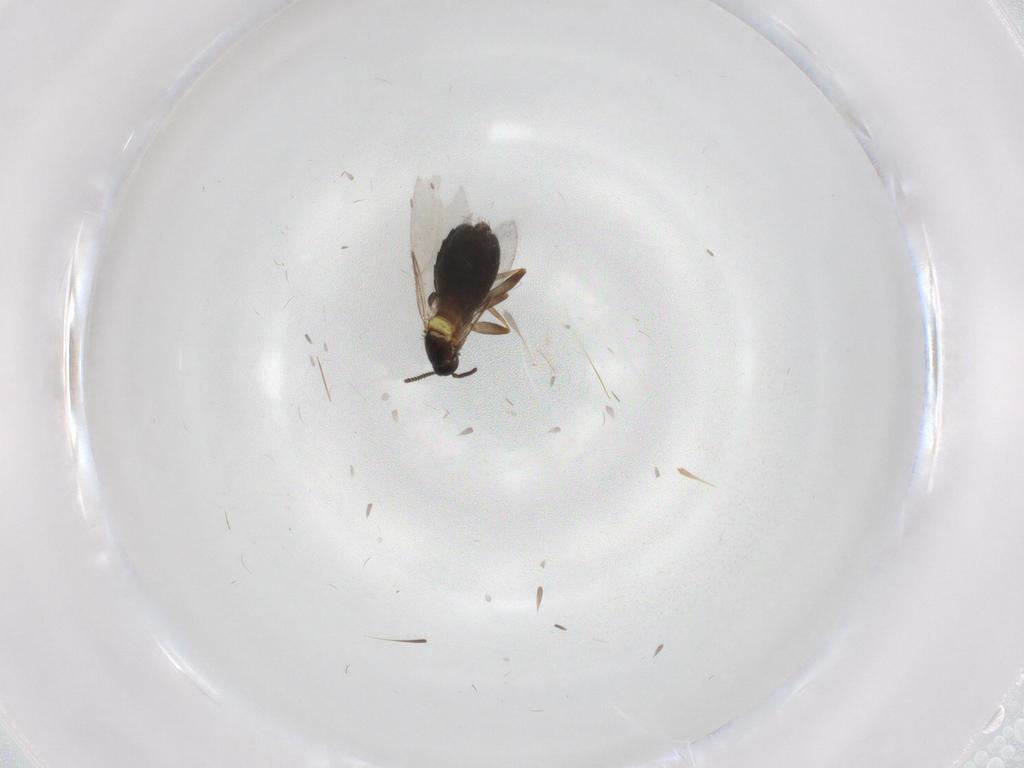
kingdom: Animalia
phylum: Arthropoda
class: Insecta
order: Diptera
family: Scatopsidae
